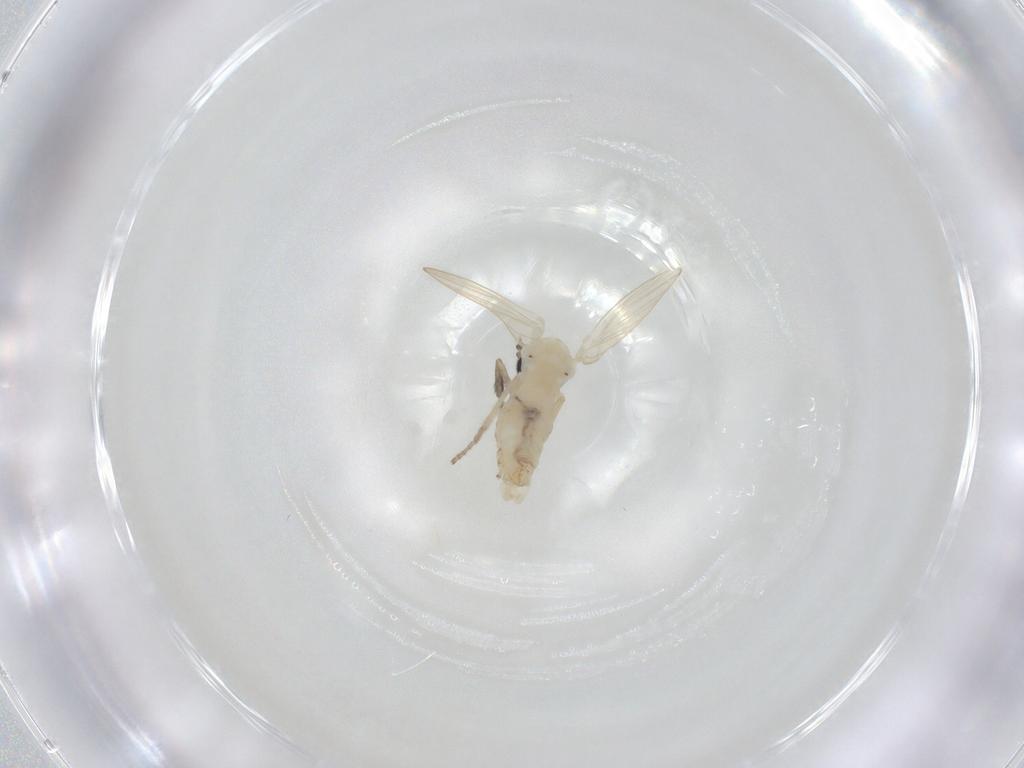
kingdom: Animalia
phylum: Arthropoda
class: Insecta
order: Diptera
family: Psychodidae
